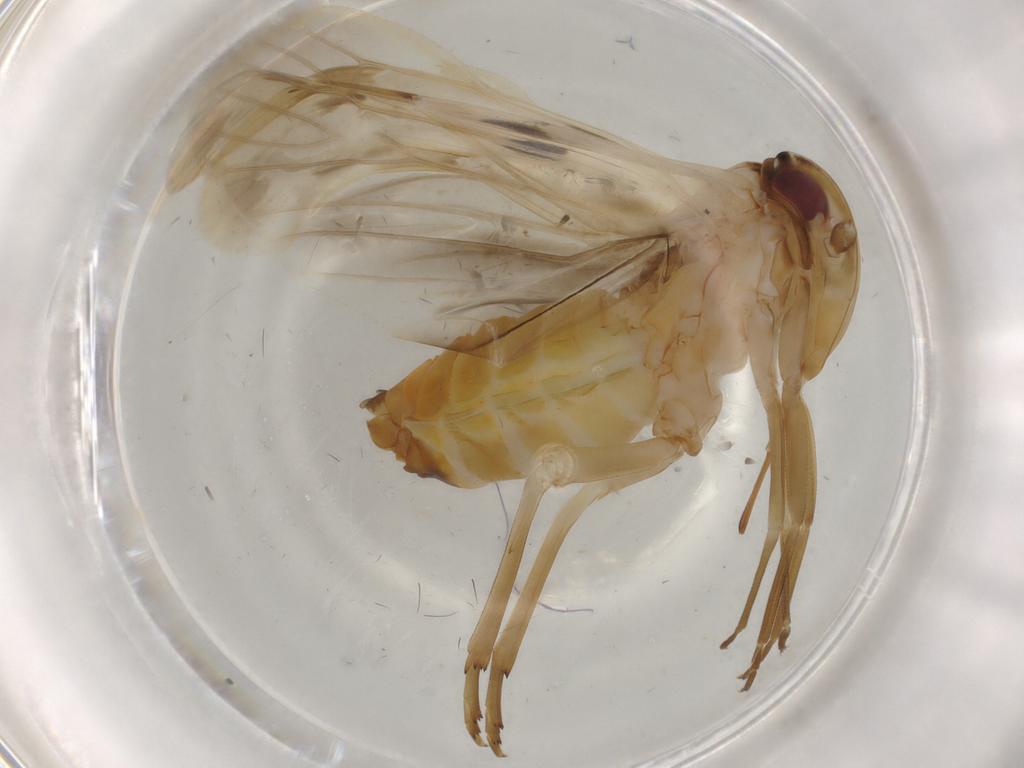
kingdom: Animalia
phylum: Arthropoda
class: Insecta
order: Hemiptera
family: Achilidae
